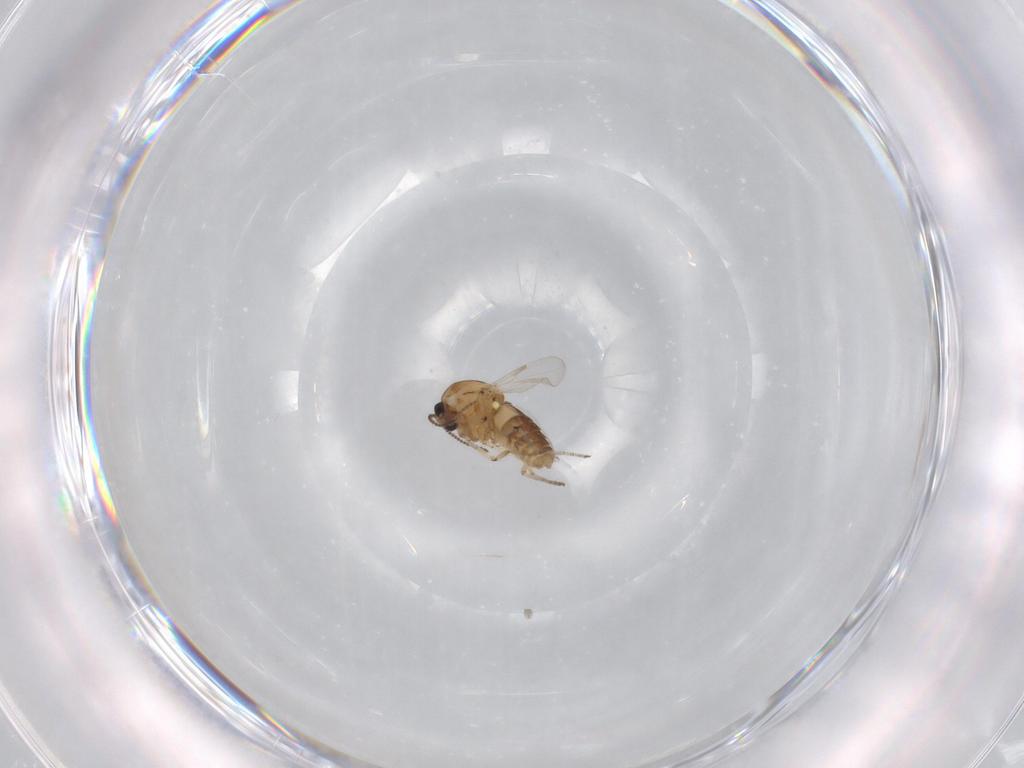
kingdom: Animalia
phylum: Arthropoda
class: Insecta
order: Diptera
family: Ceratopogonidae
